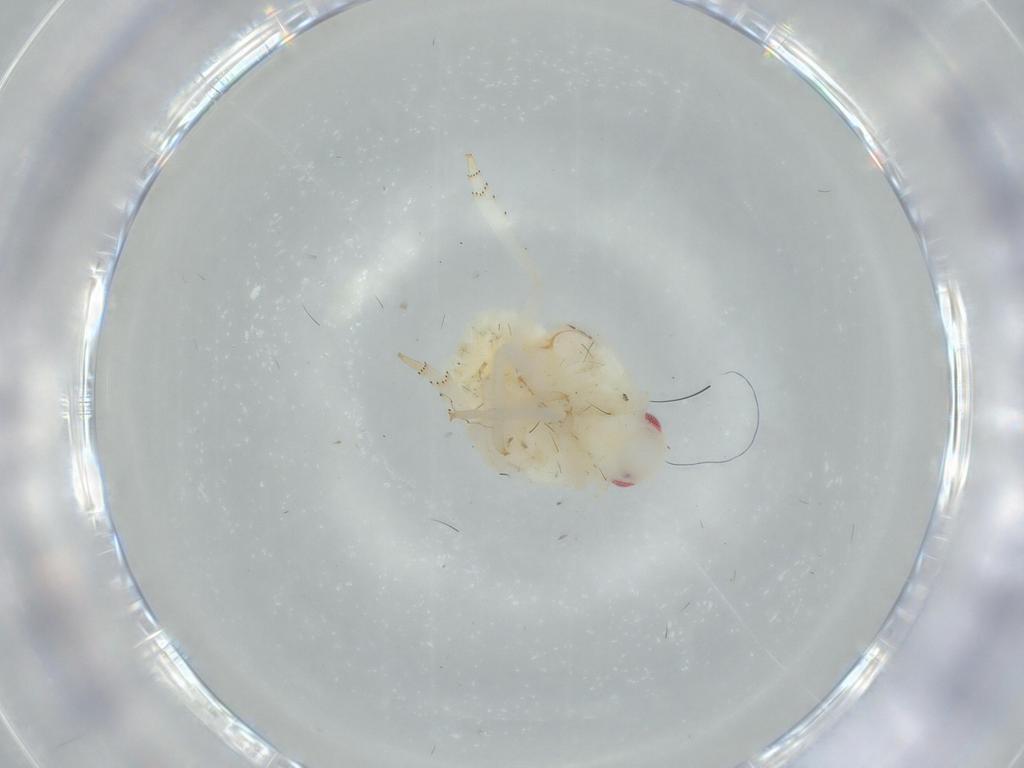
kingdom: Animalia
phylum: Arthropoda
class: Insecta
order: Hemiptera
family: Flatidae
